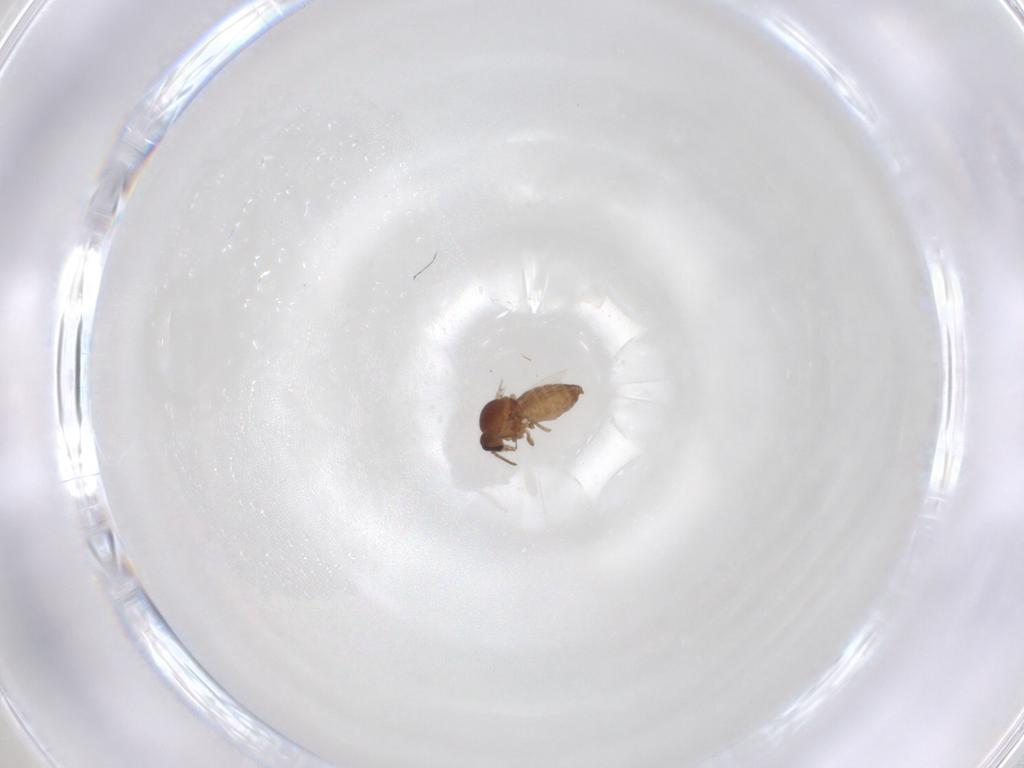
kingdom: Animalia
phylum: Arthropoda
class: Insecta
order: Diptera
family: Ceratopogonidae
